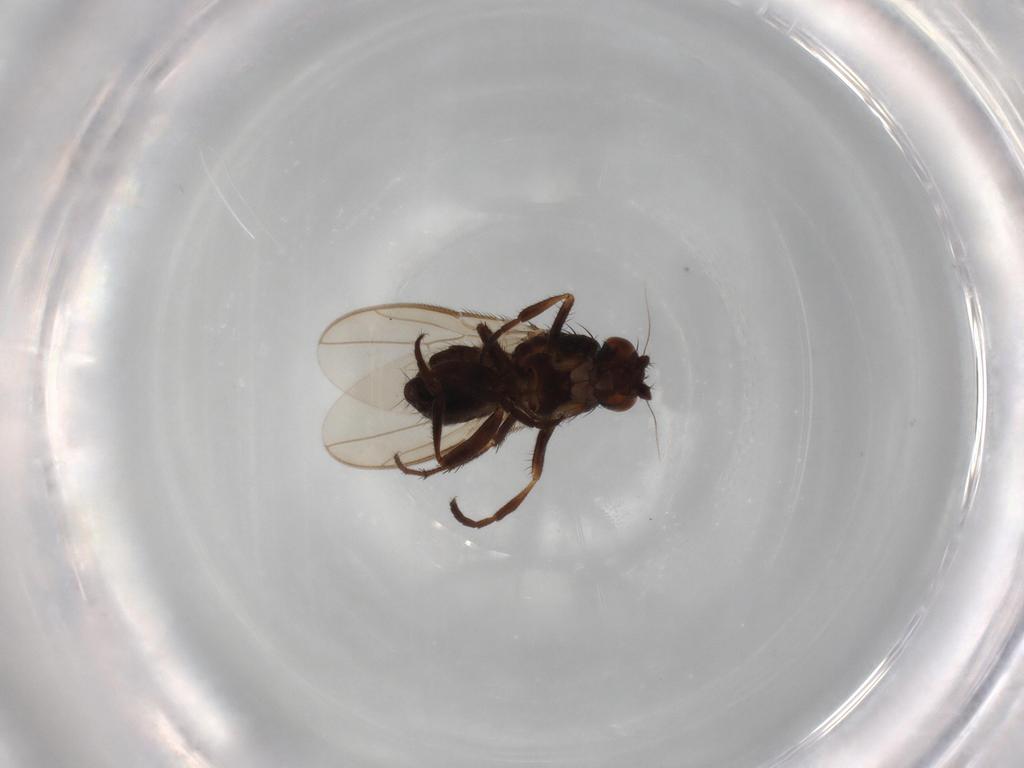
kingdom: Animalia
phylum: Arthropoda
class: Insecta
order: Diptera
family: Sphaeroceridae
